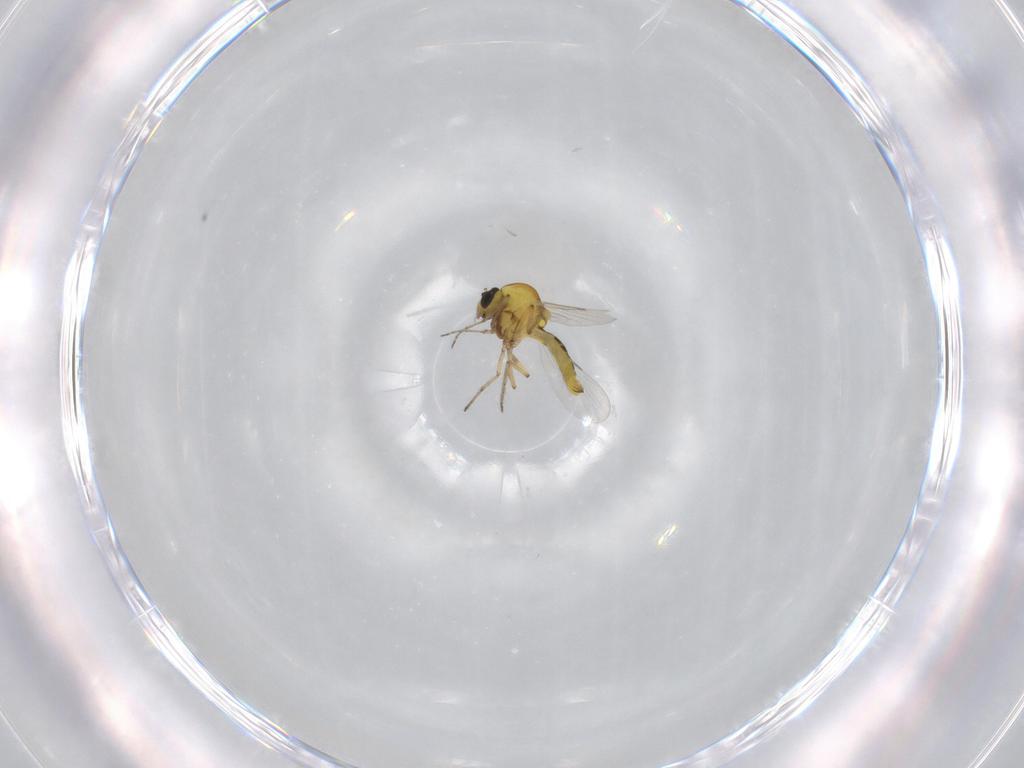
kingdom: Animalia
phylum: Arthropoda
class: Insecta
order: Diptera
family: Ceratopogonidae
